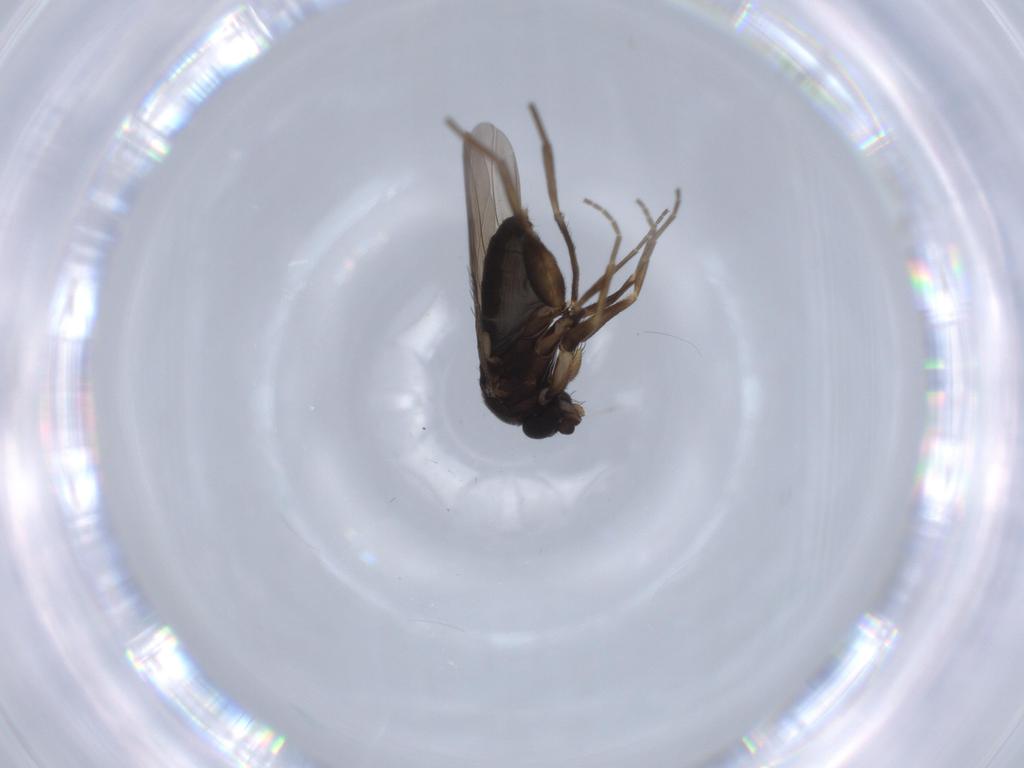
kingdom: Animalia
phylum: Arthropoda
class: Insecta
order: Diptera
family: Phoridae
